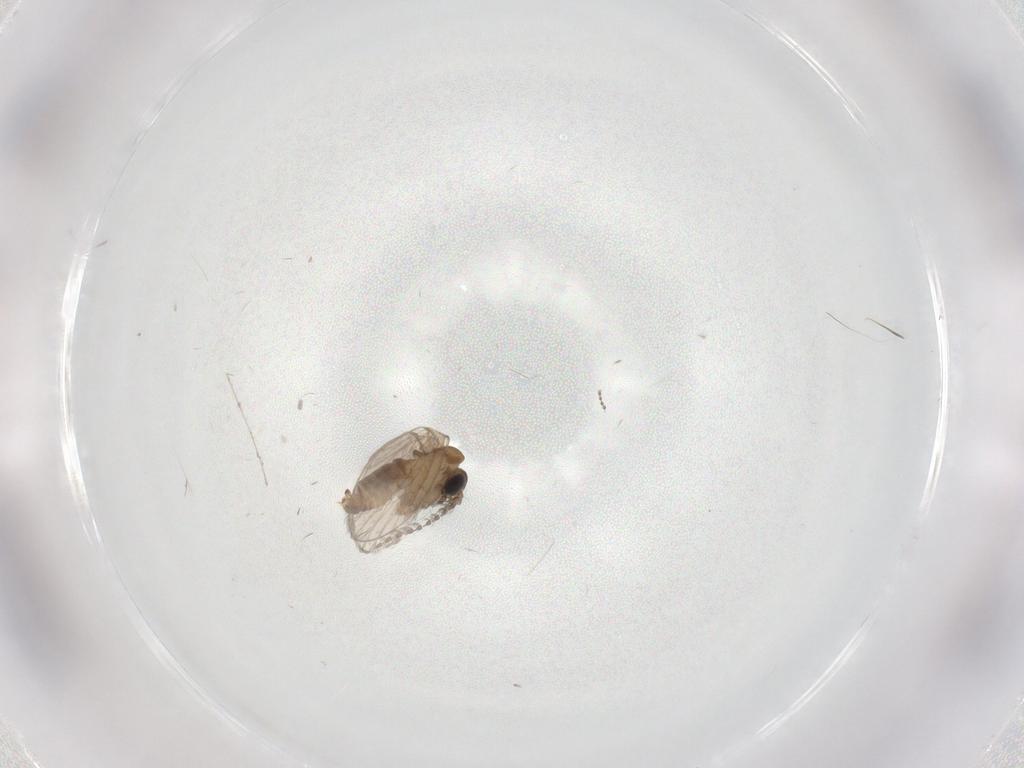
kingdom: Animalia
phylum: Arthropoda
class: Insecta
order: Diptera
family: Cecidomyiidae
